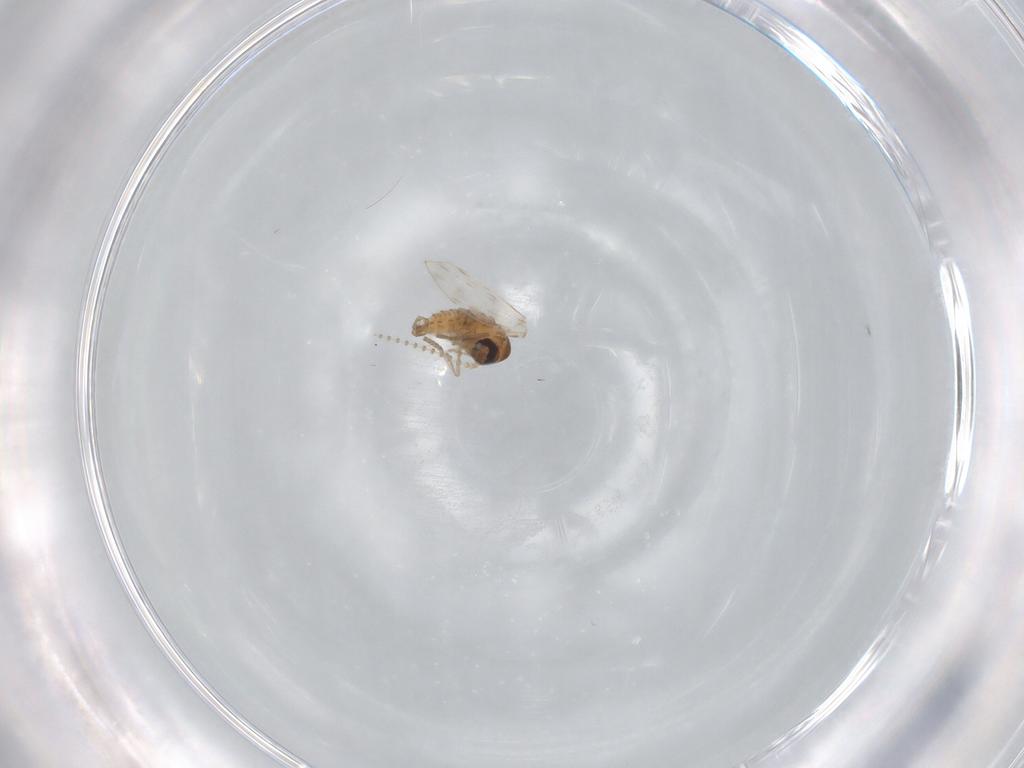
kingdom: Animalia
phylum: Arthropoda
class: Insecta
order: Diptera
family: Psychodidae
